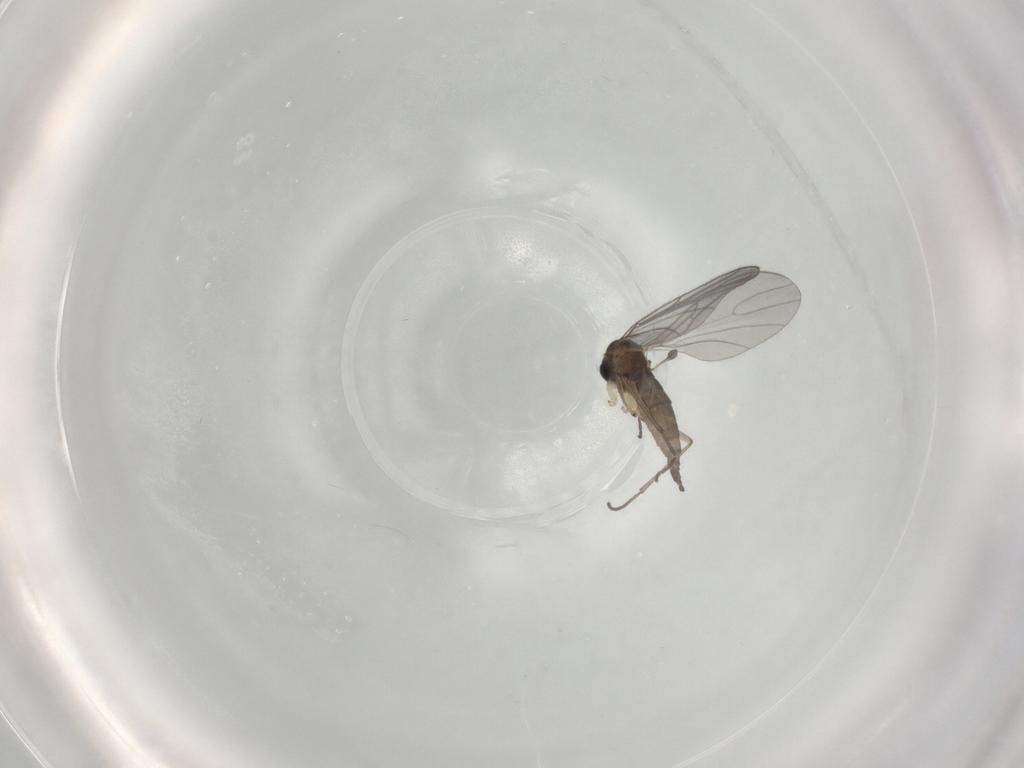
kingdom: Animalia
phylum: Arthropoda
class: Insecta
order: Diptera
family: Sciaridae
